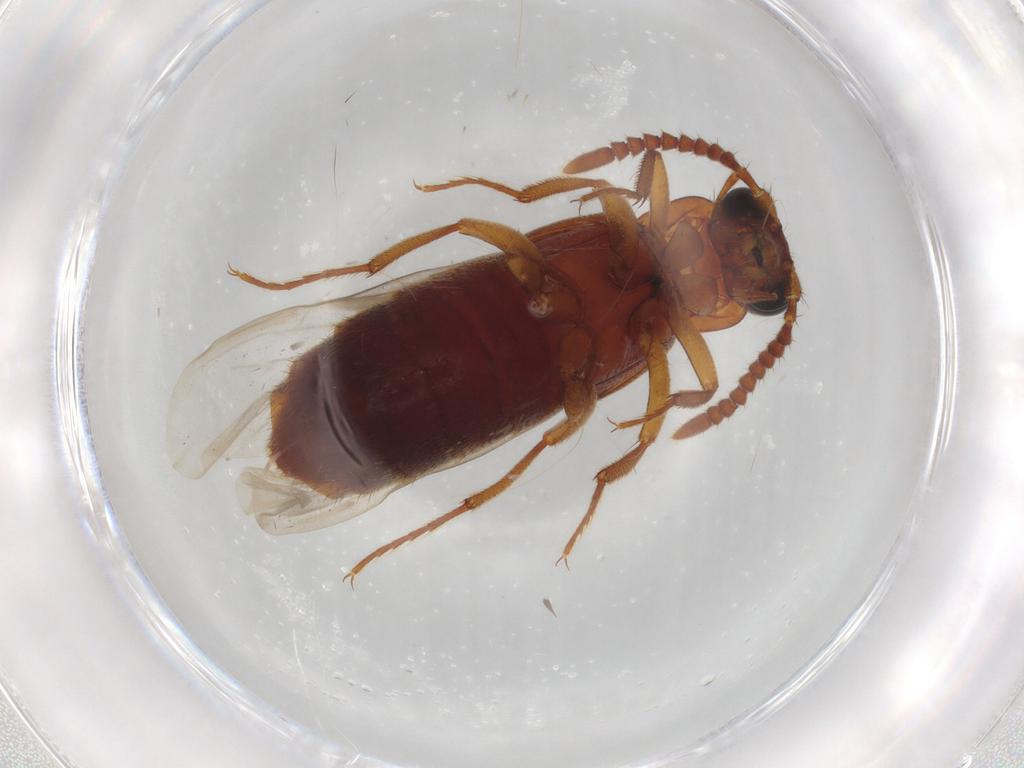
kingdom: Animalia
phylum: Arthropoda
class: Insecta
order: Coleoptera
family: Staphylinidae
